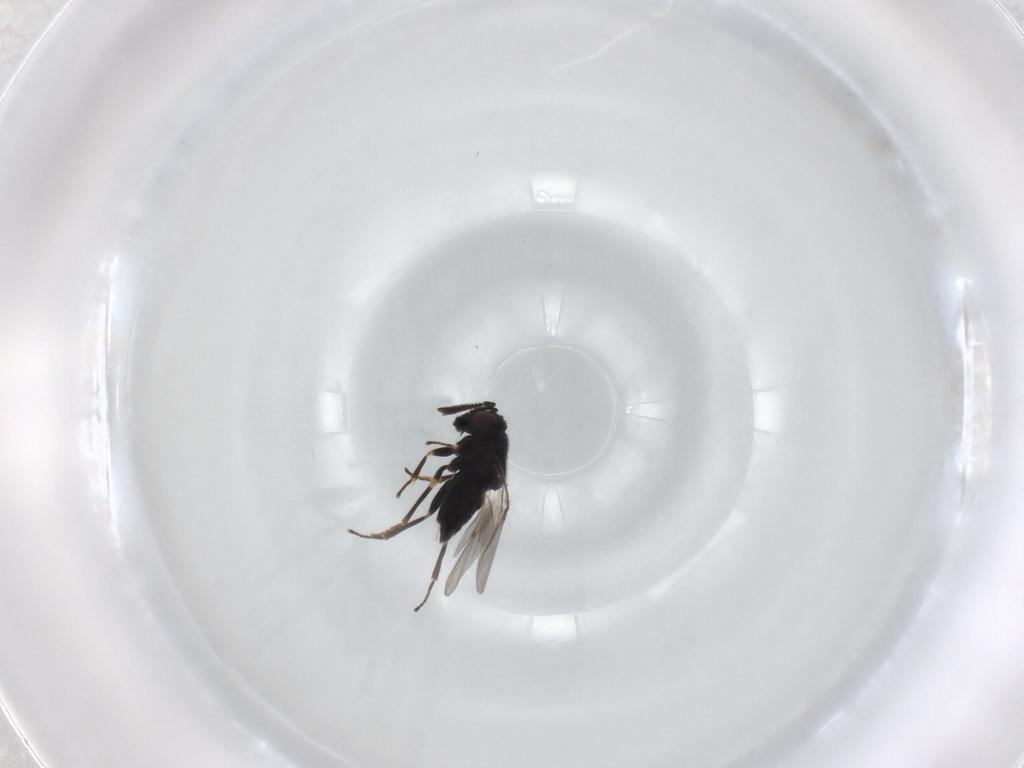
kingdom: Animalia
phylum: Arthropoda
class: Insecta
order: Hymenoptera
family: Encyrtidae
